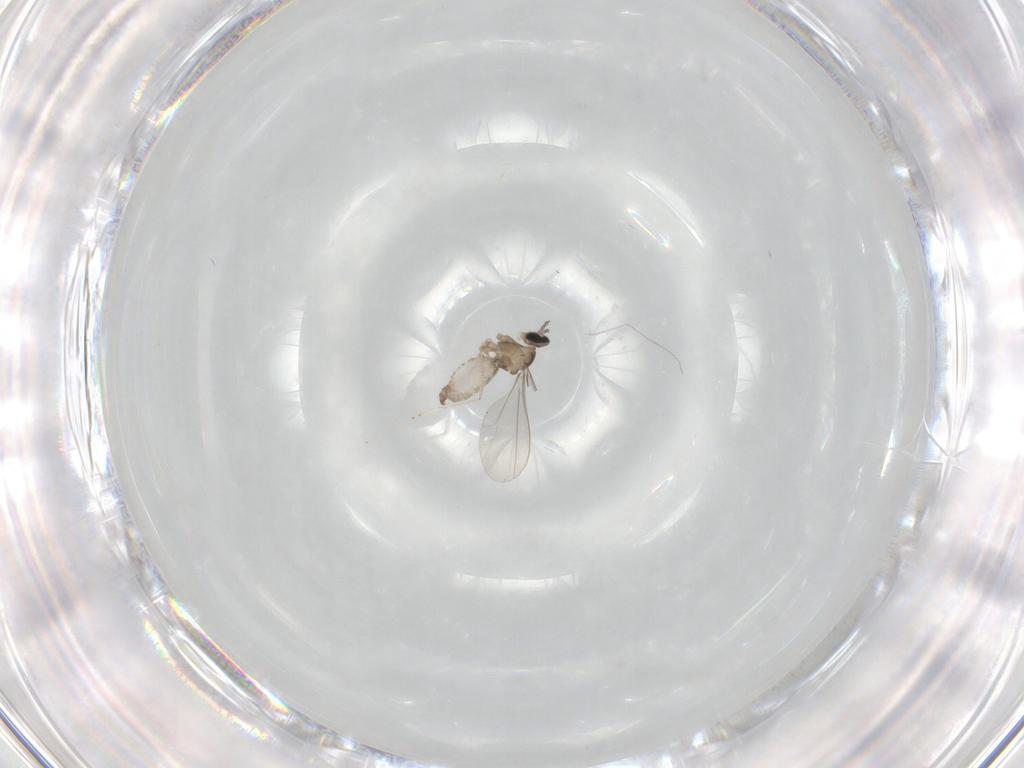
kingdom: Animalia
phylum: Arthropoda
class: Insecta
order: Diptera
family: Cecidomyiidae
